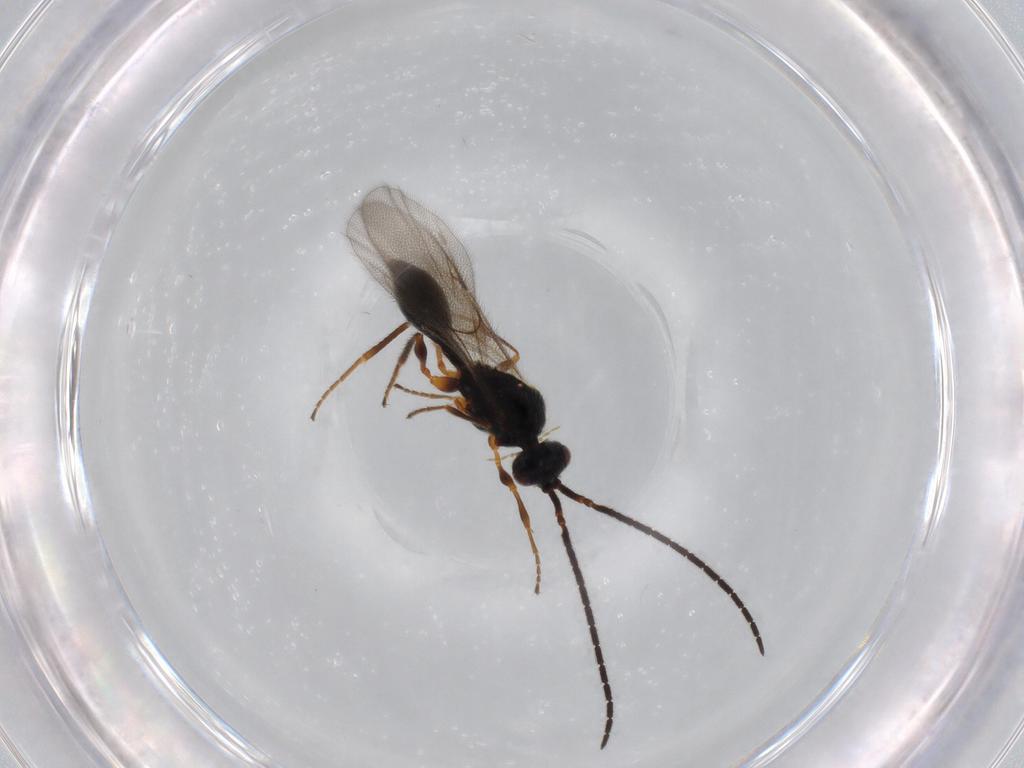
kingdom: Animalia
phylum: Arthropoda
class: Insecta
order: Hymenoptera
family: Diapriidae
